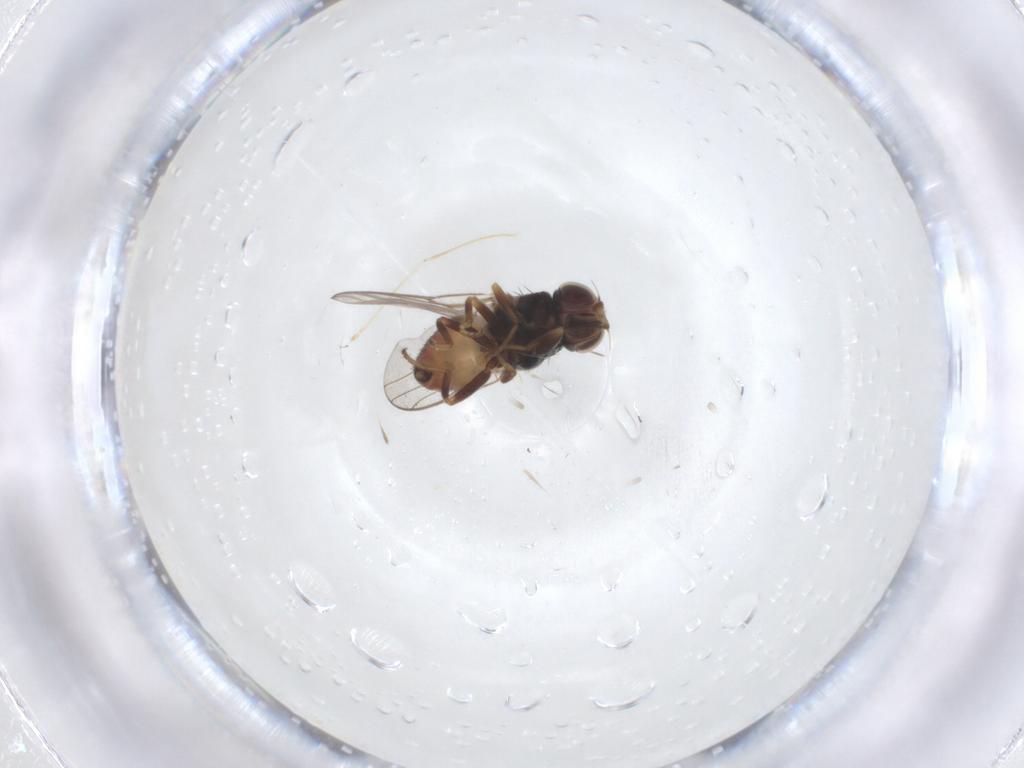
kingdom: Animalia
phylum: Arthropoda
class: Insecta
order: Diptera
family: Chloropidae
